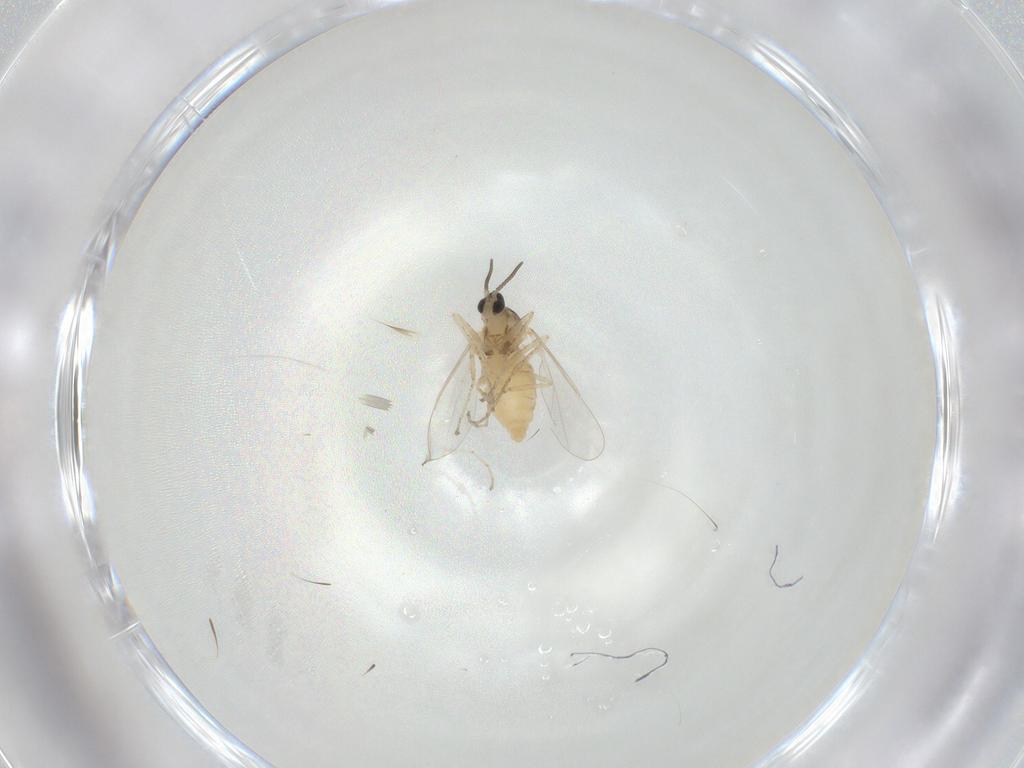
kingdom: Animalia
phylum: Arthropoda
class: Insecta
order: Diptera
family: Cecidomyiidae
